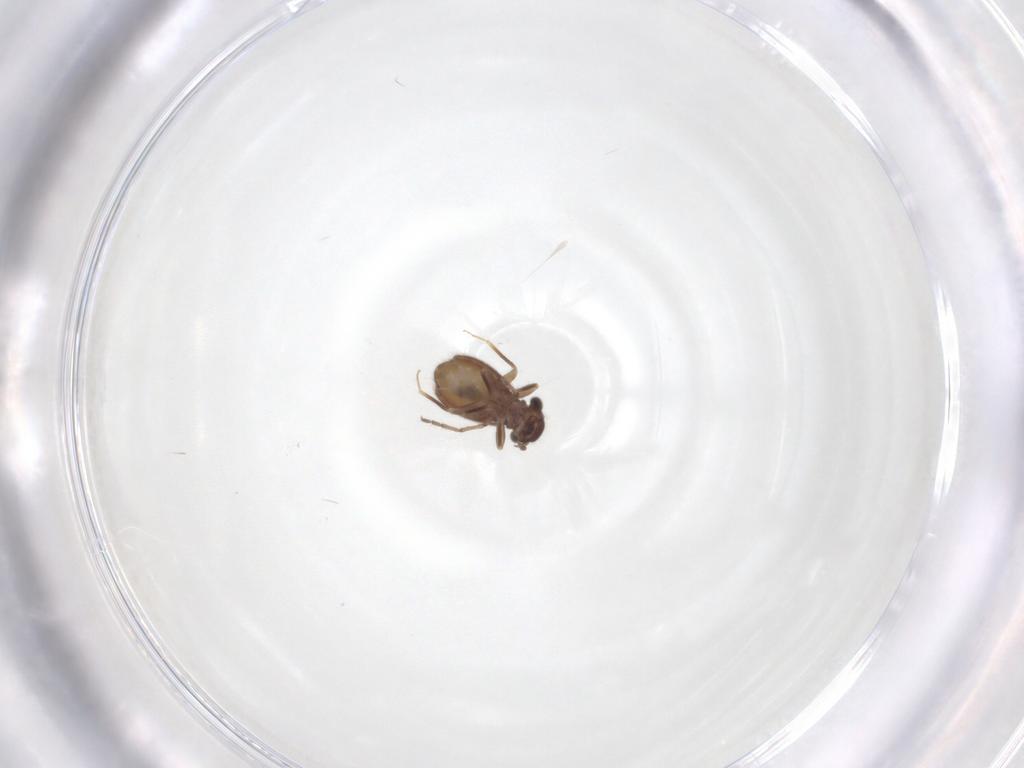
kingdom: Animalia
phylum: Arthropoda
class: Insecta
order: Diptera
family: Chironomidae
